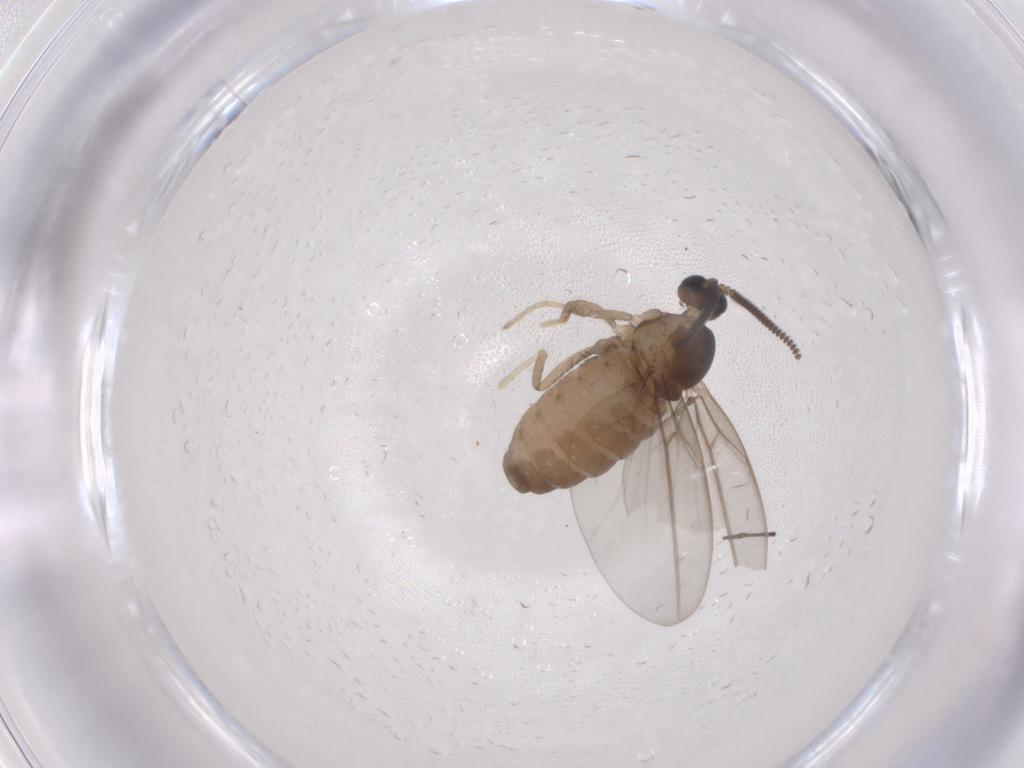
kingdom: Animalia
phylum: Arthropoda
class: Insecta
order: Diptera
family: Cecidomyiidae
